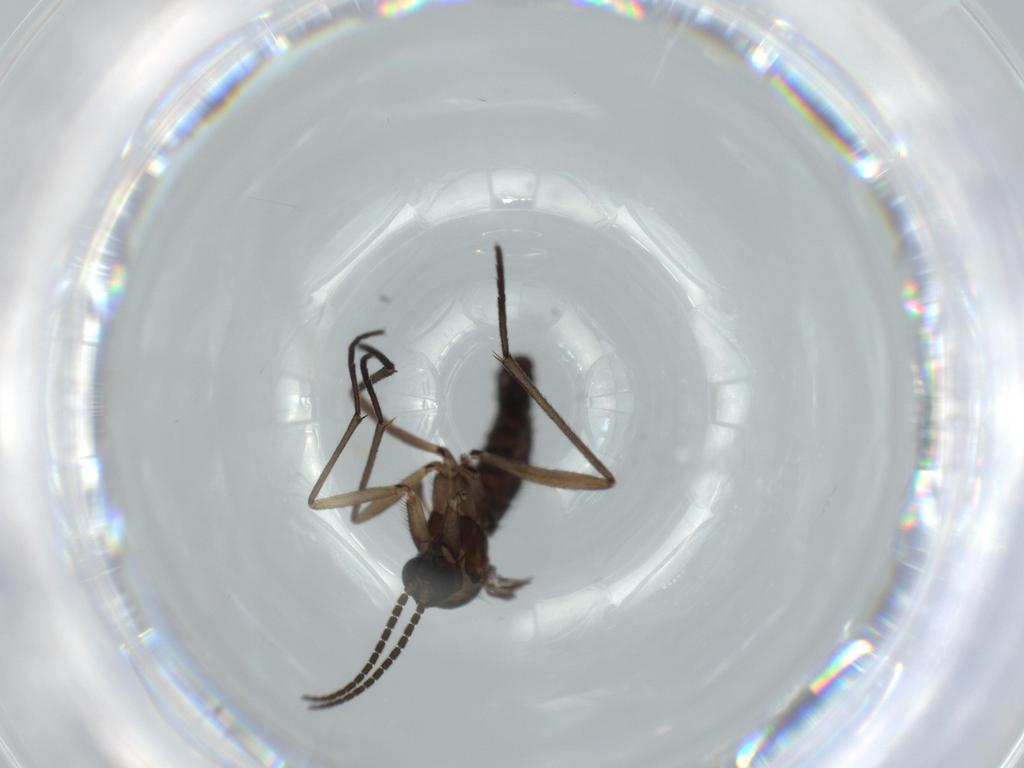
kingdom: Animalia
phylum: Arthropoda
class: Insecta
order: Diptera
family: Sciaridae
